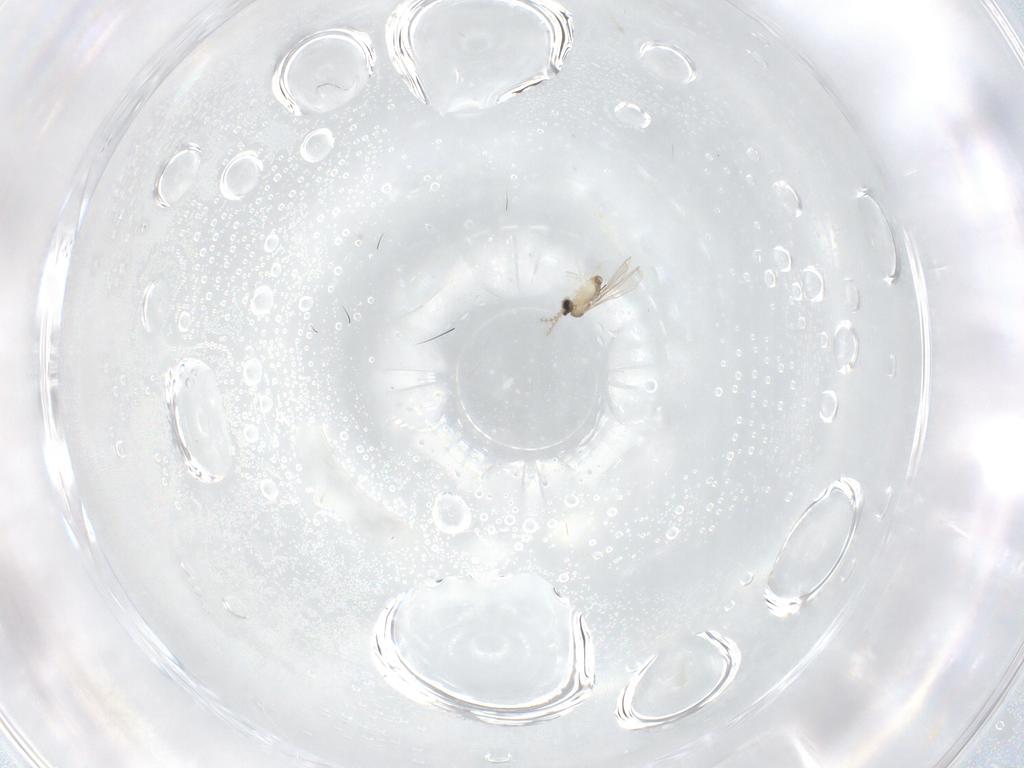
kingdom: Animalia
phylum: Arthropoda
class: Insecta
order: Diptera
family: Cecidomyiidae
